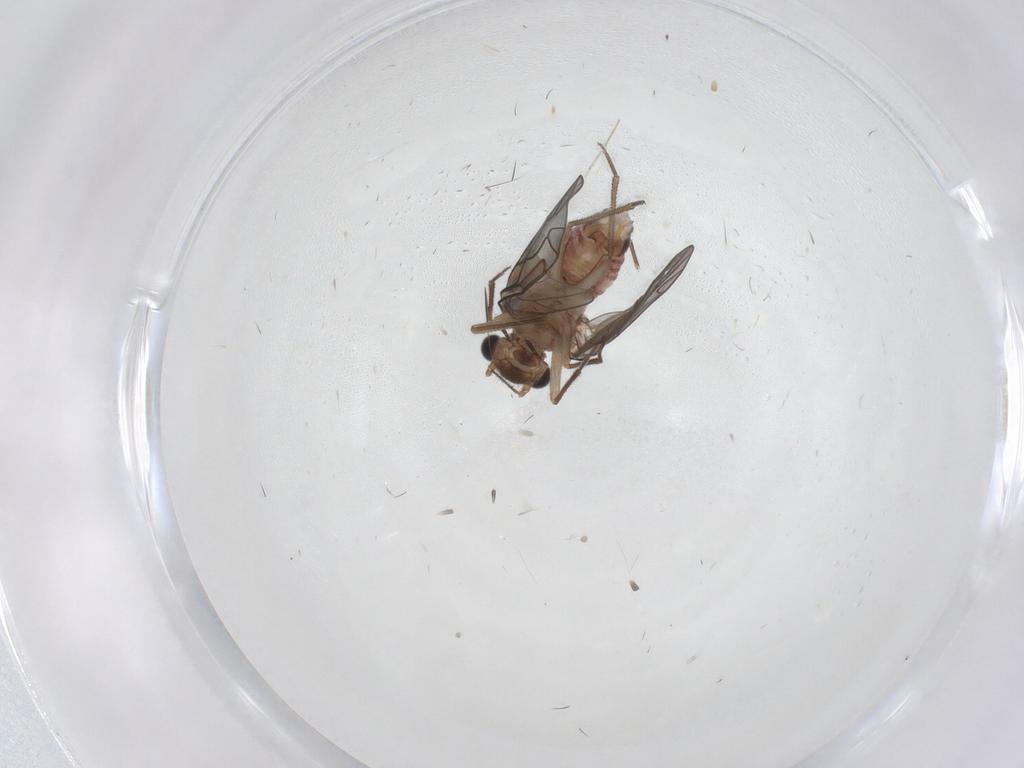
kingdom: Animalia
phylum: Arthropoda
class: Insecta
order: Psocodea
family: Lachesillidae
